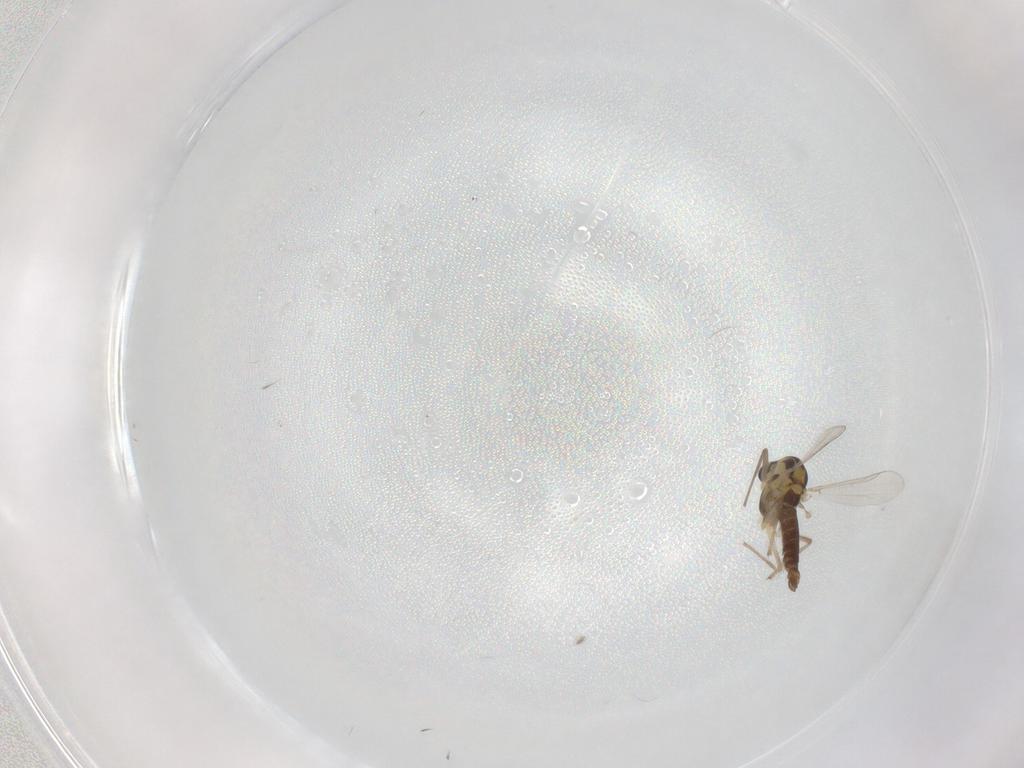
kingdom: Animalia
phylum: Arthropoda
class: Insecta
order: Diptera
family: Chironomidae
